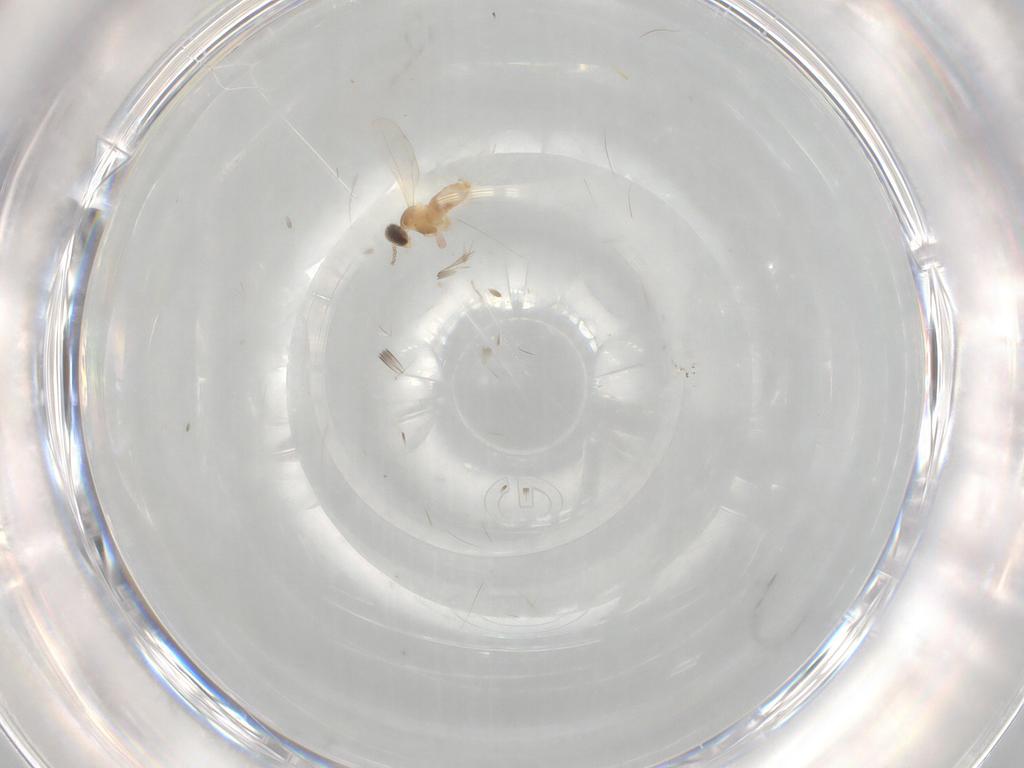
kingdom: Animalia
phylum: Arthropoda
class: Insecta
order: Diptera
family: Cecidomyiidae
